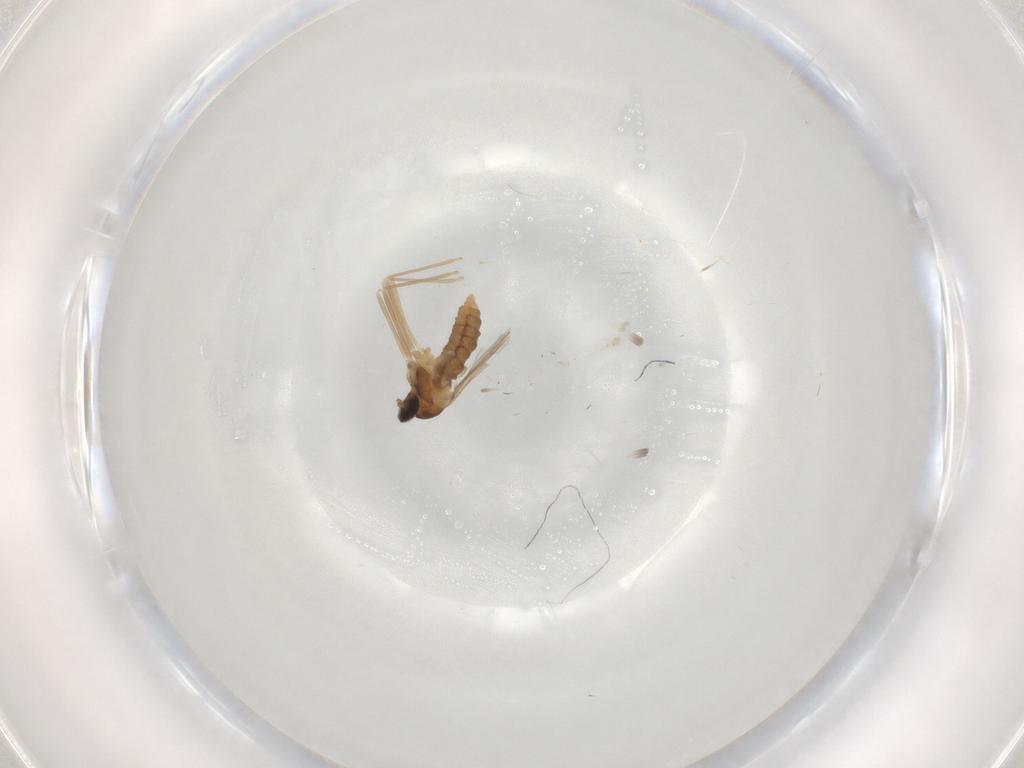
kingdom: Animalia
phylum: Arthropoda
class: Insecta
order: Diptera
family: Cecidomyiidae
